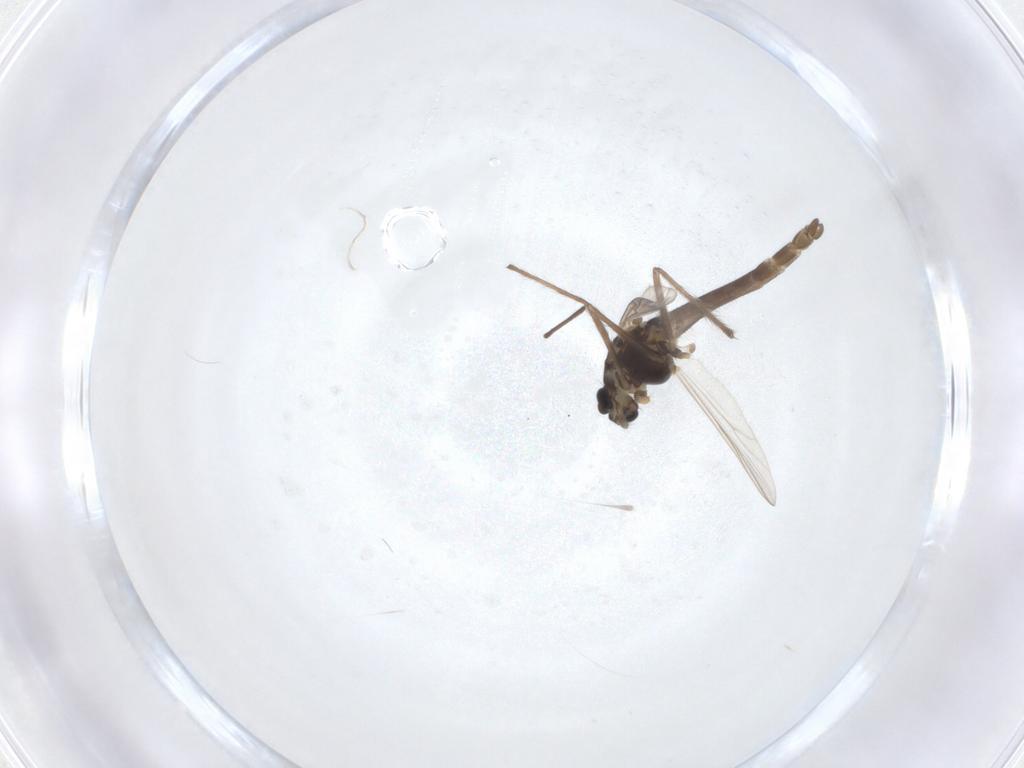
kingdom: Animalia
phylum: Arthropoda
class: Insecta
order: Diptera
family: Chironomidae
